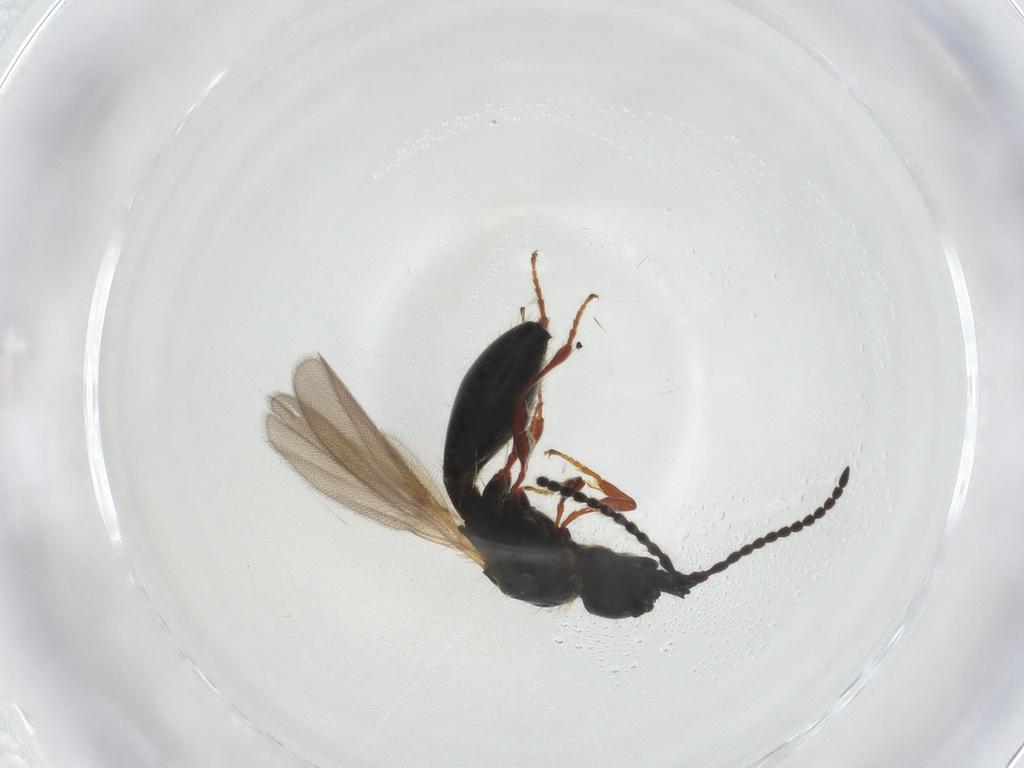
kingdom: Animalia
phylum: Arthropoda
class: Insecta
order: Hymenoptera
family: Diapriidae
